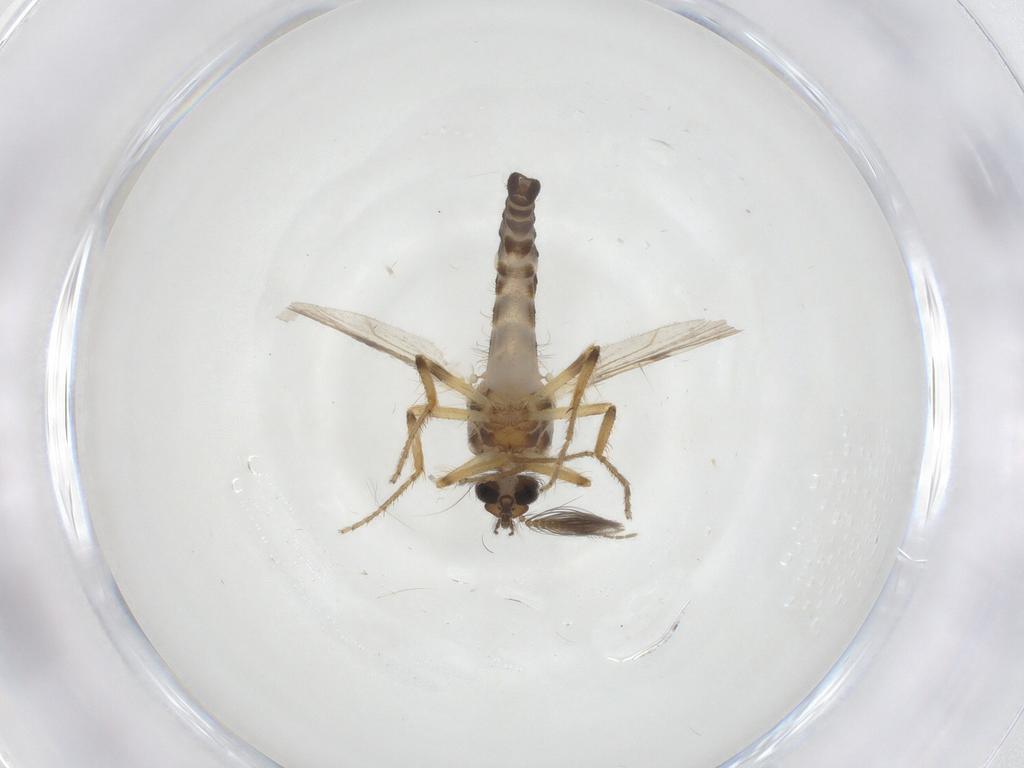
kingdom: Animalia
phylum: Arthropoda
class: Insecta
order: Diptera
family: Ceratopogonidae
